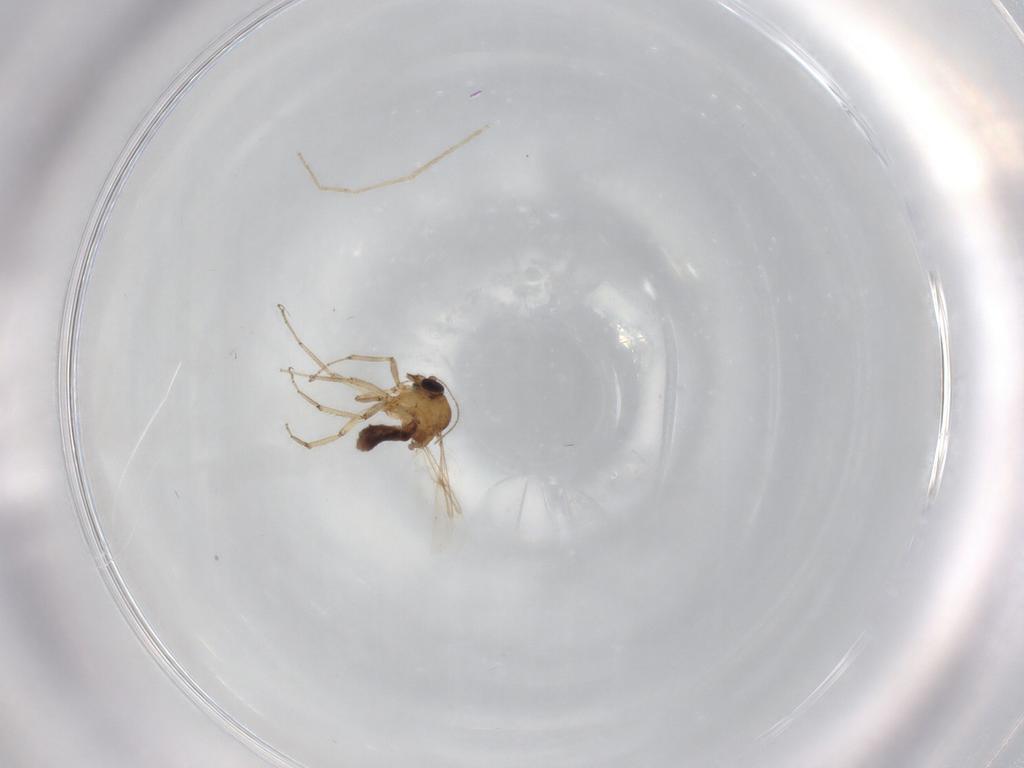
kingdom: Animalia
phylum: Arthropoda
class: Insecta
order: Diptera
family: Ceratopogonidae
